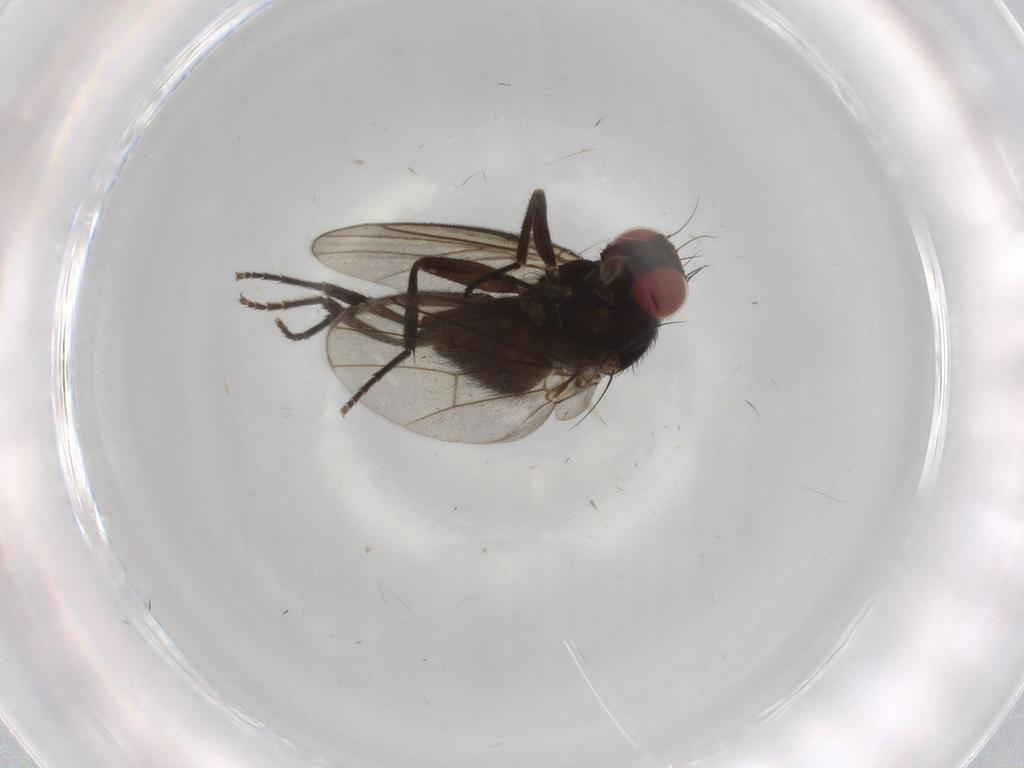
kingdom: Animalia
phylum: Arthropoda
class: Insecta
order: Diptera
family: Agromyzidae
